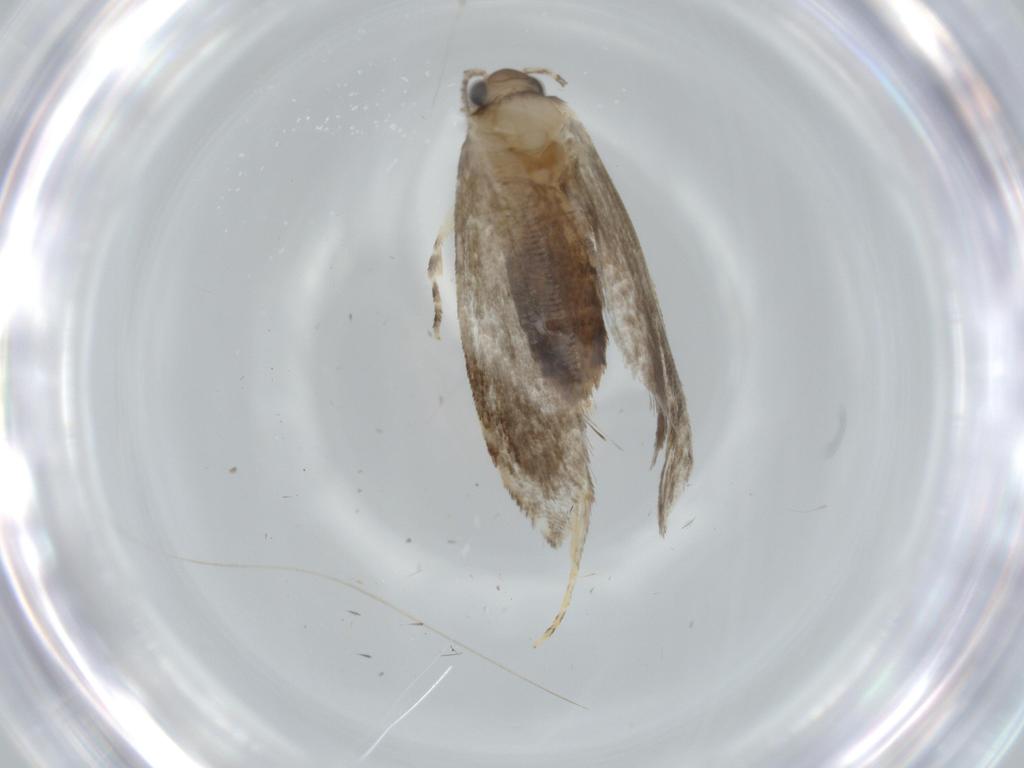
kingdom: Animalia
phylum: Arthropoda
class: Insecta
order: Lepidoptera
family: Tineidae
